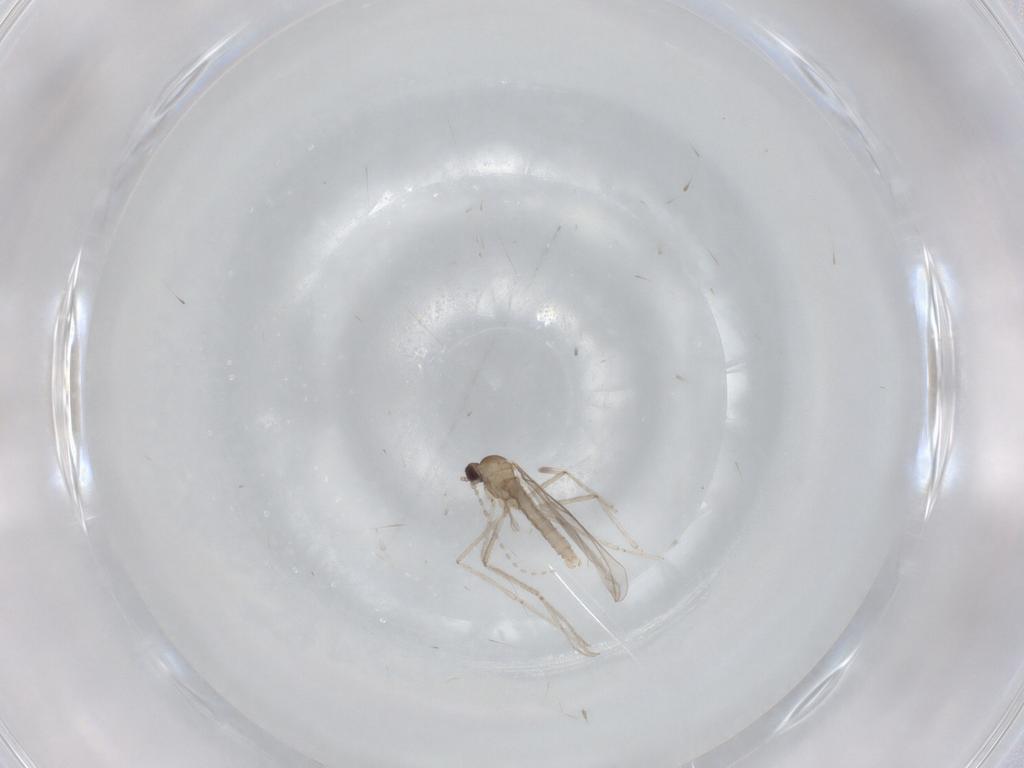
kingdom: Animalia
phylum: Arthropoda
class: Insecta
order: Diptera
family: Cecidomyiidae
